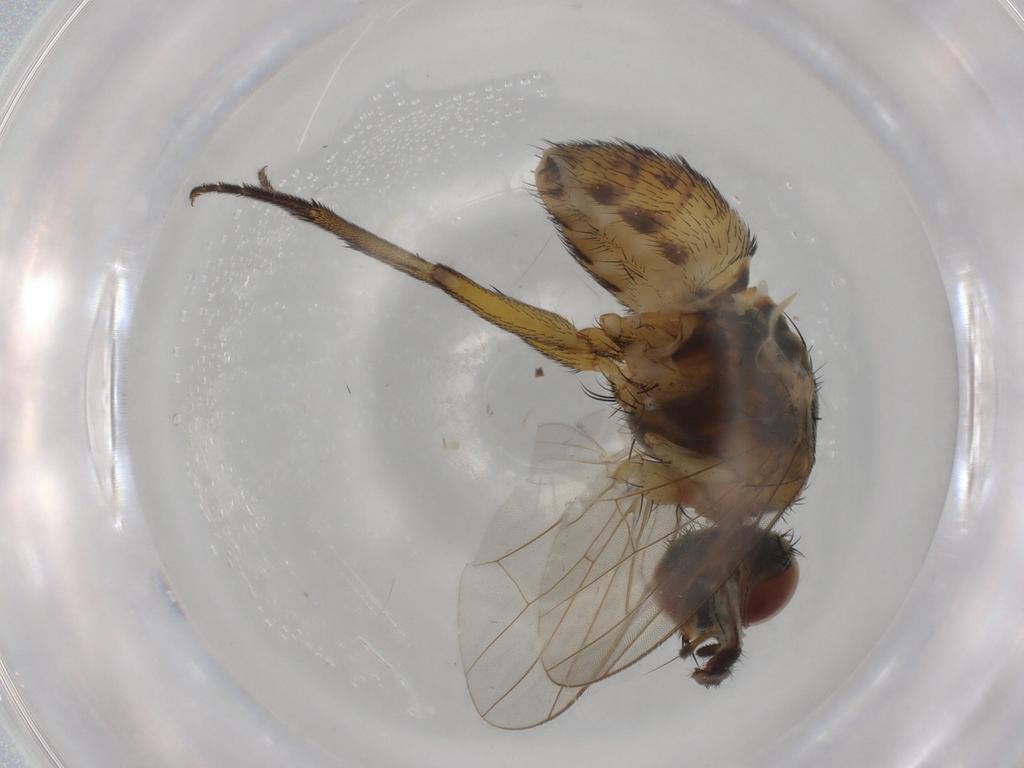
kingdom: Animalia
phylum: Arthropoda
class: Insecta
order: Diptera
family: Muscidae
